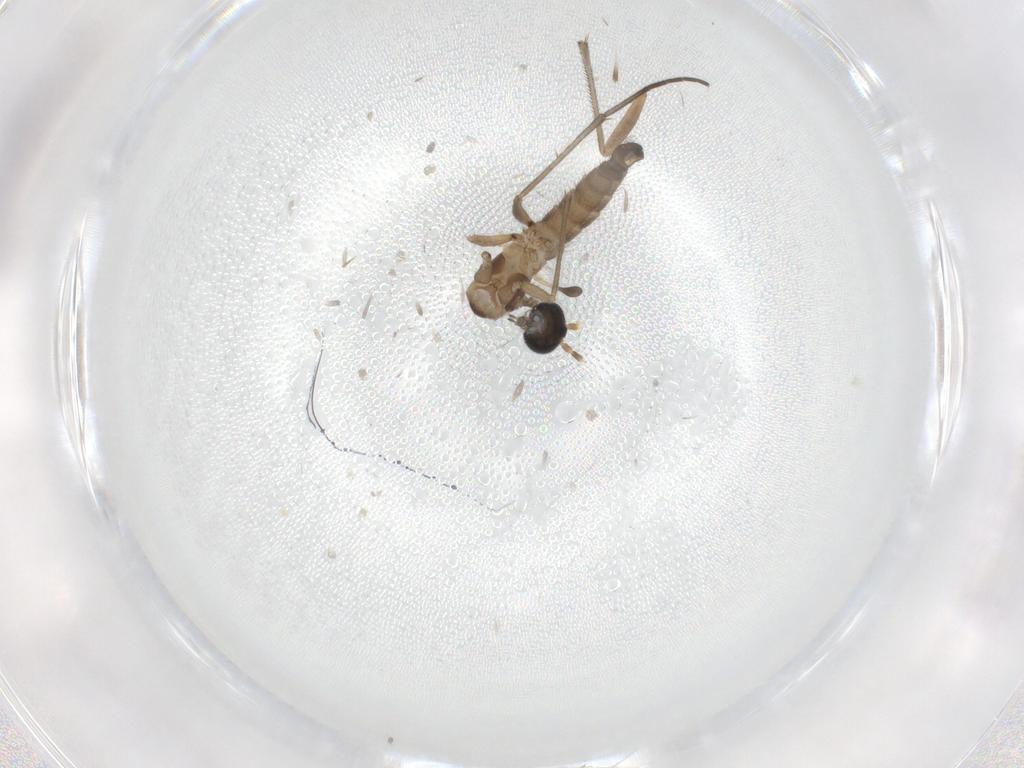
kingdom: Animalia
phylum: Arthropoda
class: Insecta
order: Diptera
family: Sciaridae
